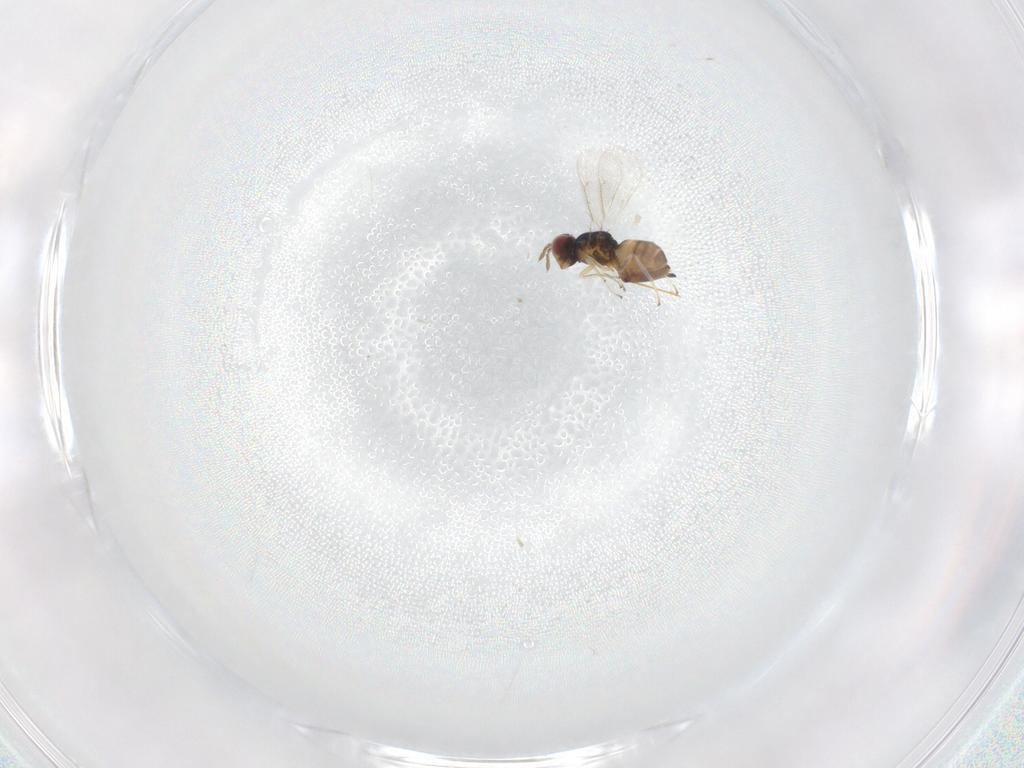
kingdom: Animalia
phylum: Arthropoda
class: Insecta
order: Hymenoptera
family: Eulophidae
